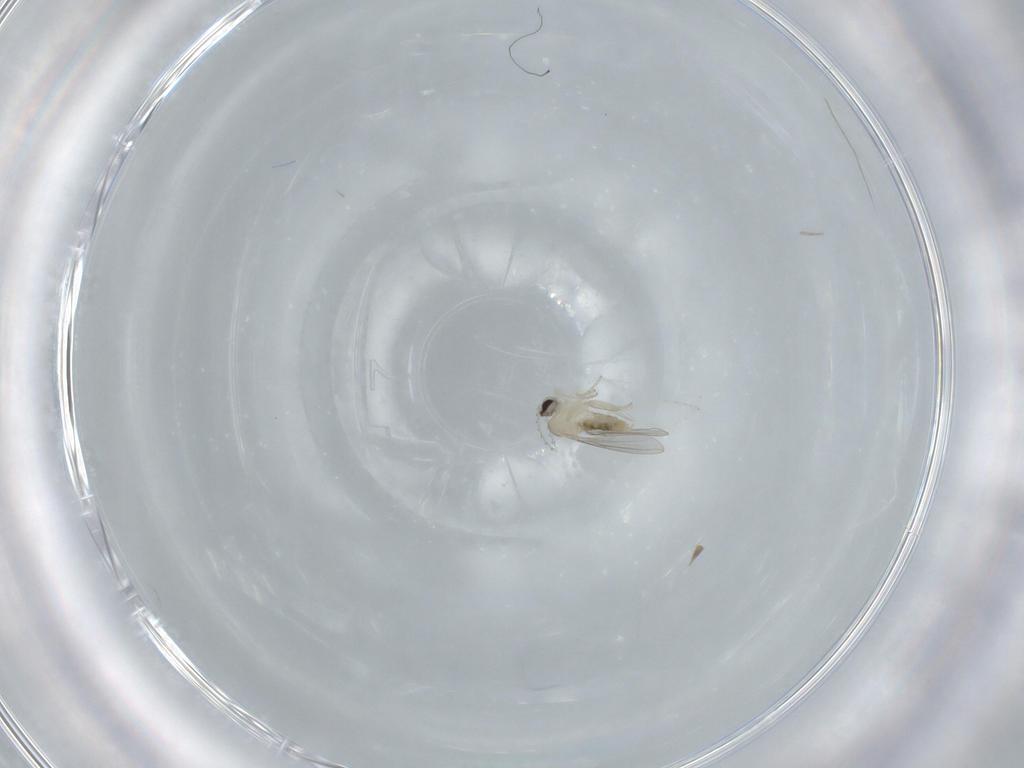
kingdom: Animalia
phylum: Arthropoda
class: Insecta
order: Diptera
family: Cecidomyiidae
